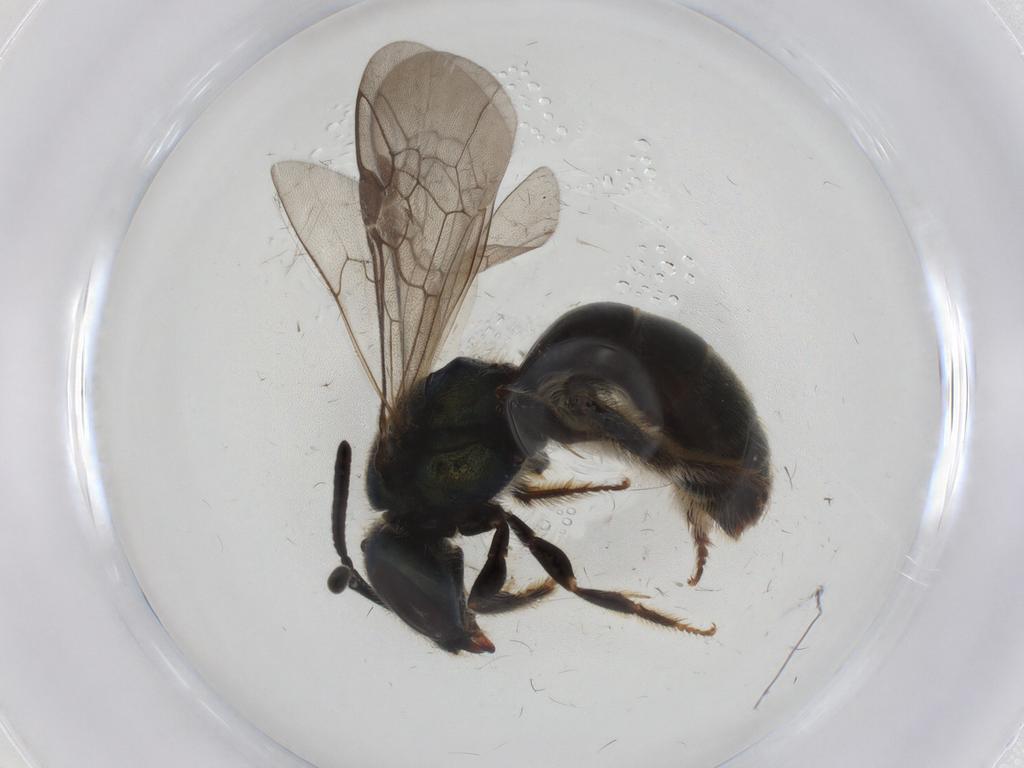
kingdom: Animalia
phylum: Arthropoda
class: Insecta
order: Hymenoptera
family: Halictidae
